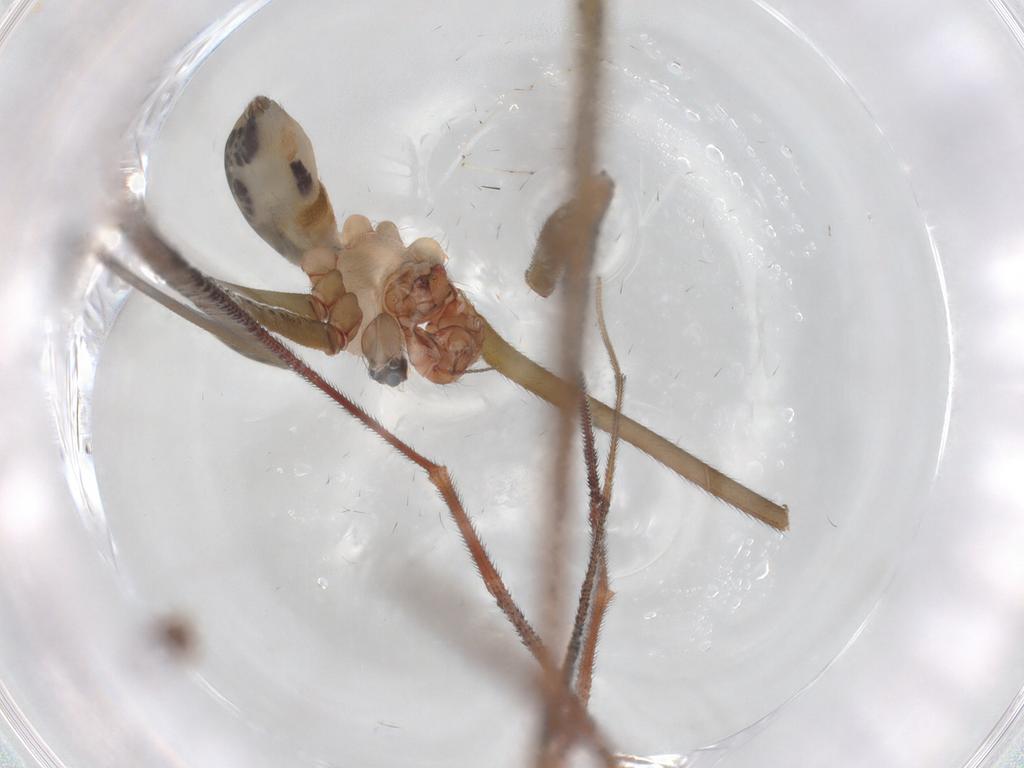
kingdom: Animalia
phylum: Arthropoda
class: Arachnida
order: Araneae
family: Pholcidae
